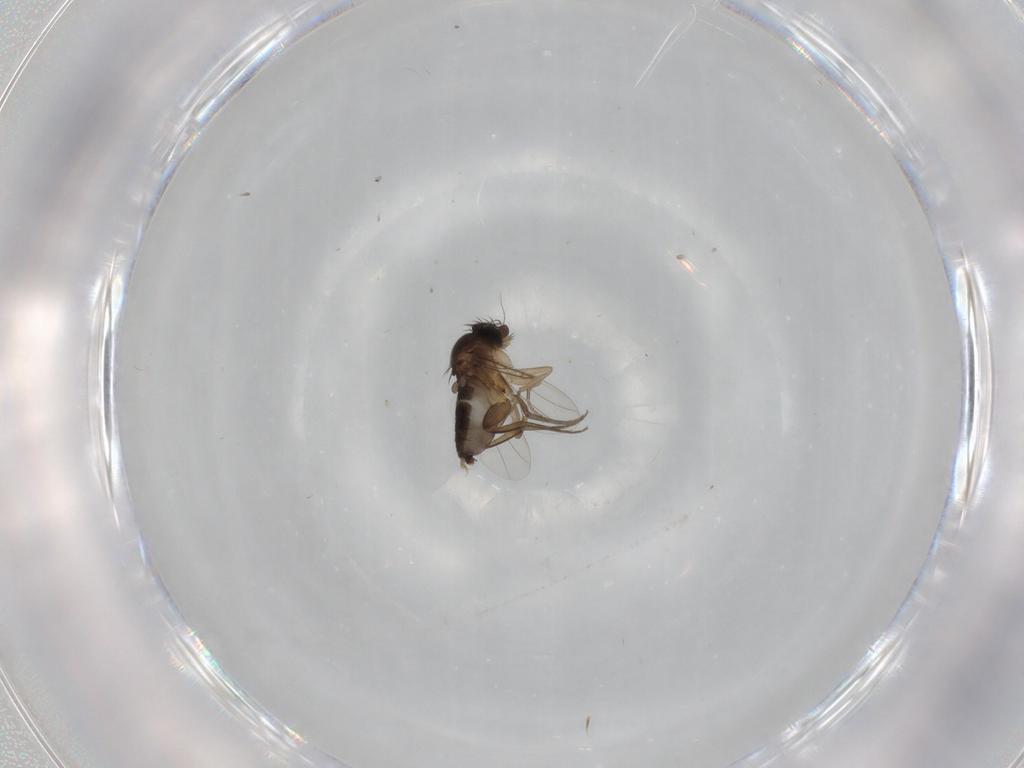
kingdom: Animalia
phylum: Arthropoda
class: Insecta
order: Diptera
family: Phoridae
